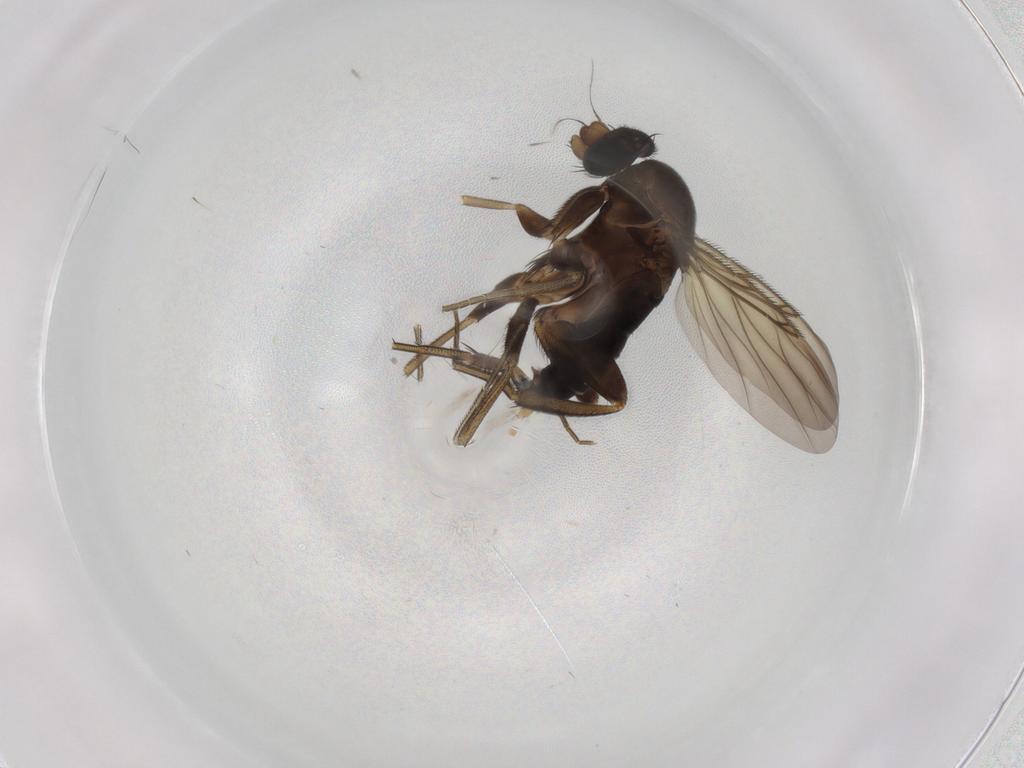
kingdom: Animalia
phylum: Arthropoda
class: Insecta
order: Diptera
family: Phoridae
